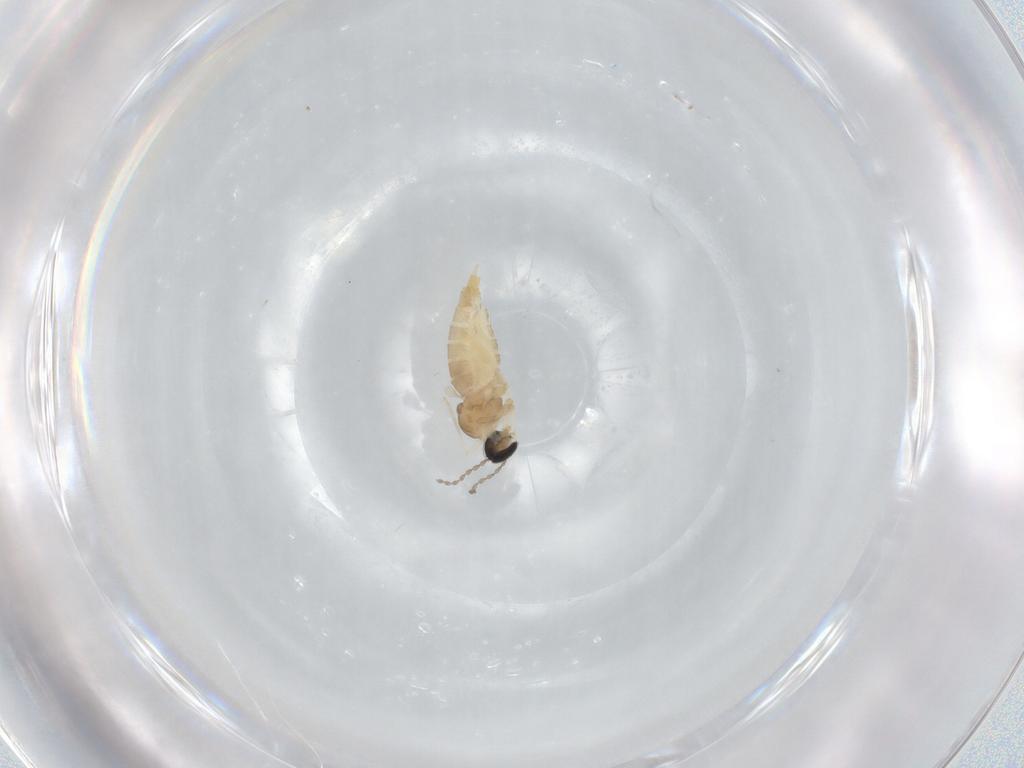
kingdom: Animalia
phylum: Arthropoda
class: Insecta
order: Diptera
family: Cecidomyiidae
